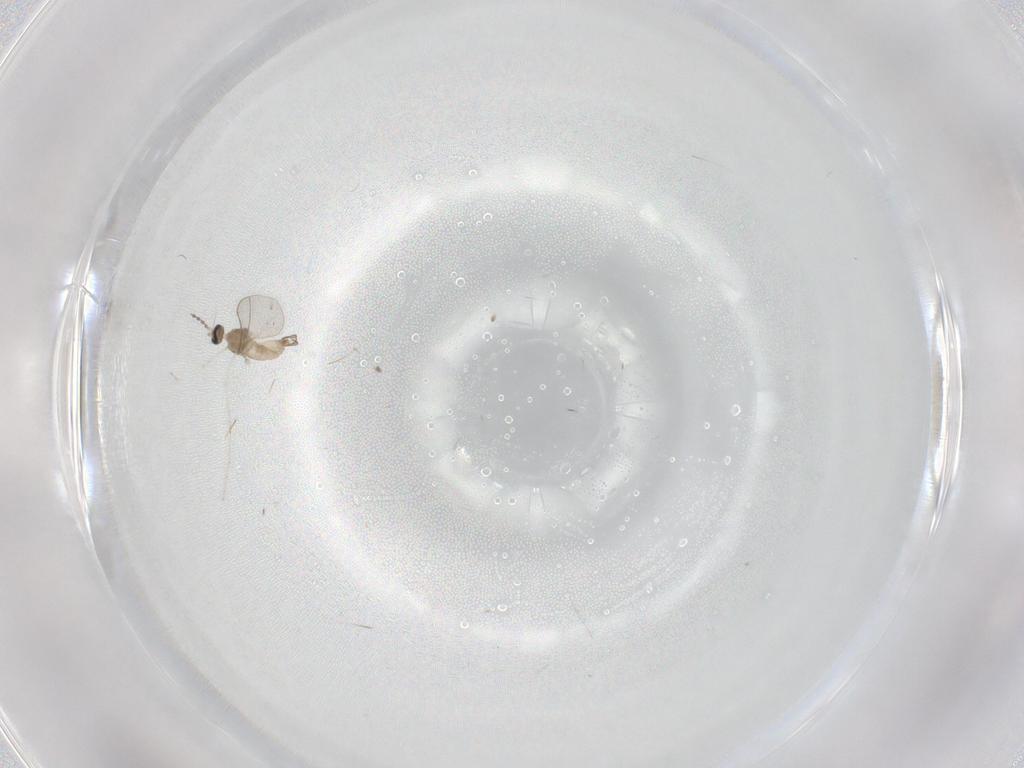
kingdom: Animalia
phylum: Arthropoda
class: Insecta
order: Diptera
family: Cecidomyiidae
